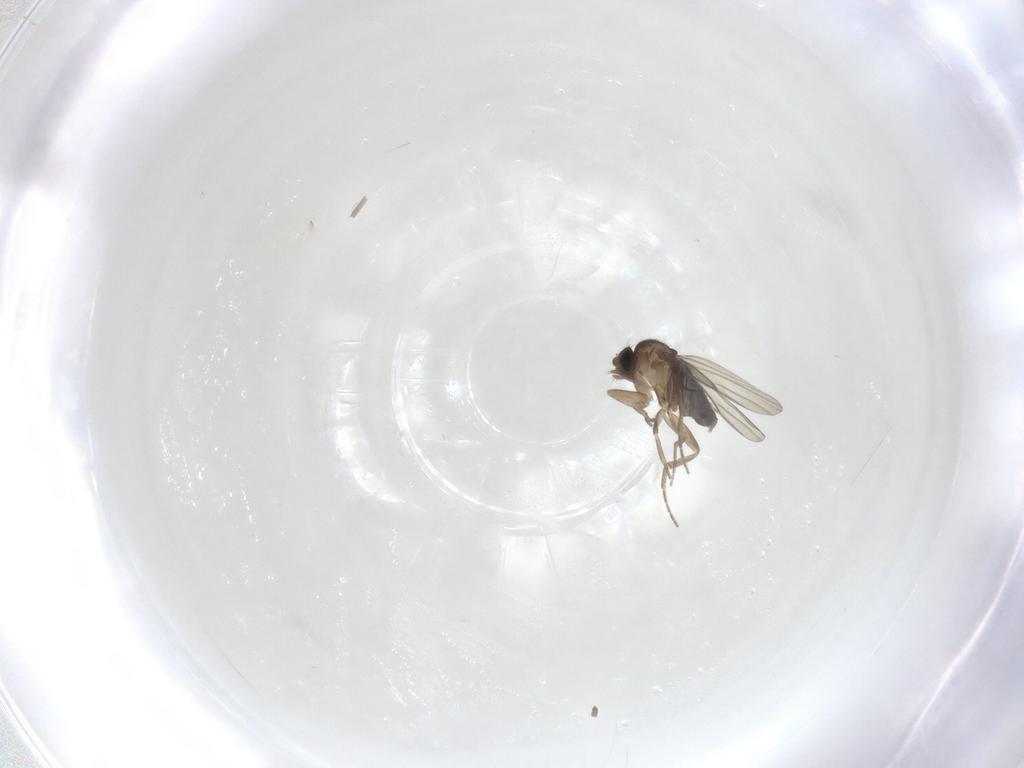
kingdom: Animalia
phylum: Arthropoda
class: Insecta
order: Diptera
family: Phoridae
